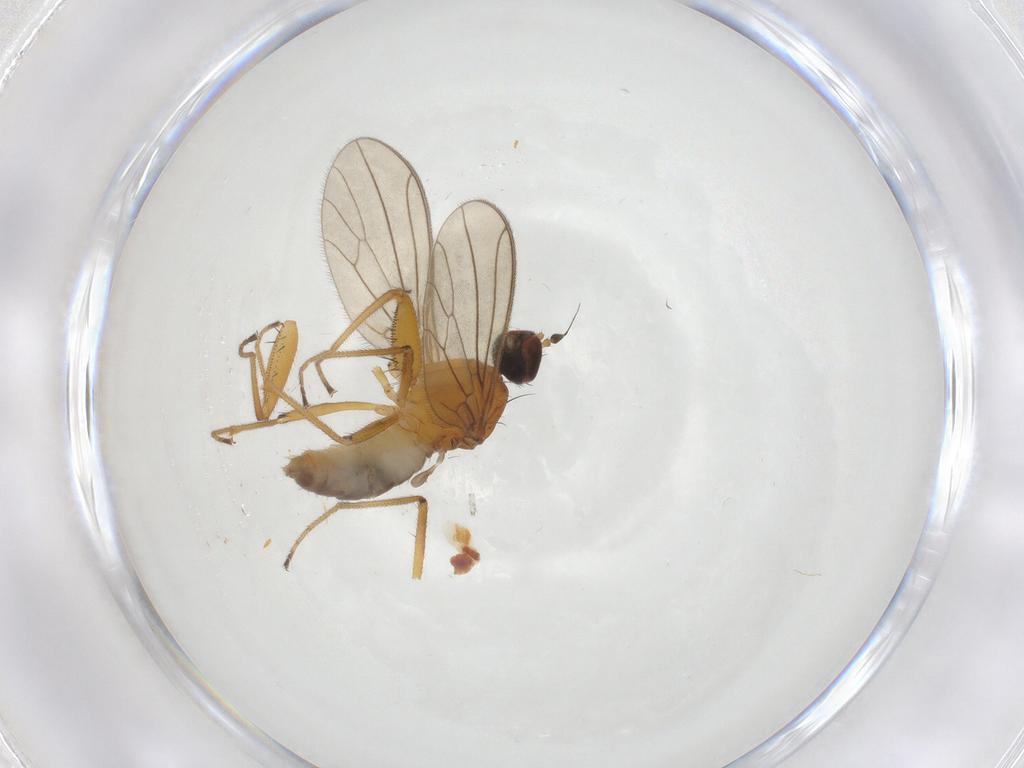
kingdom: Animalia
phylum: Arthropoda
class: Insecta
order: Diptera
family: Empididae
